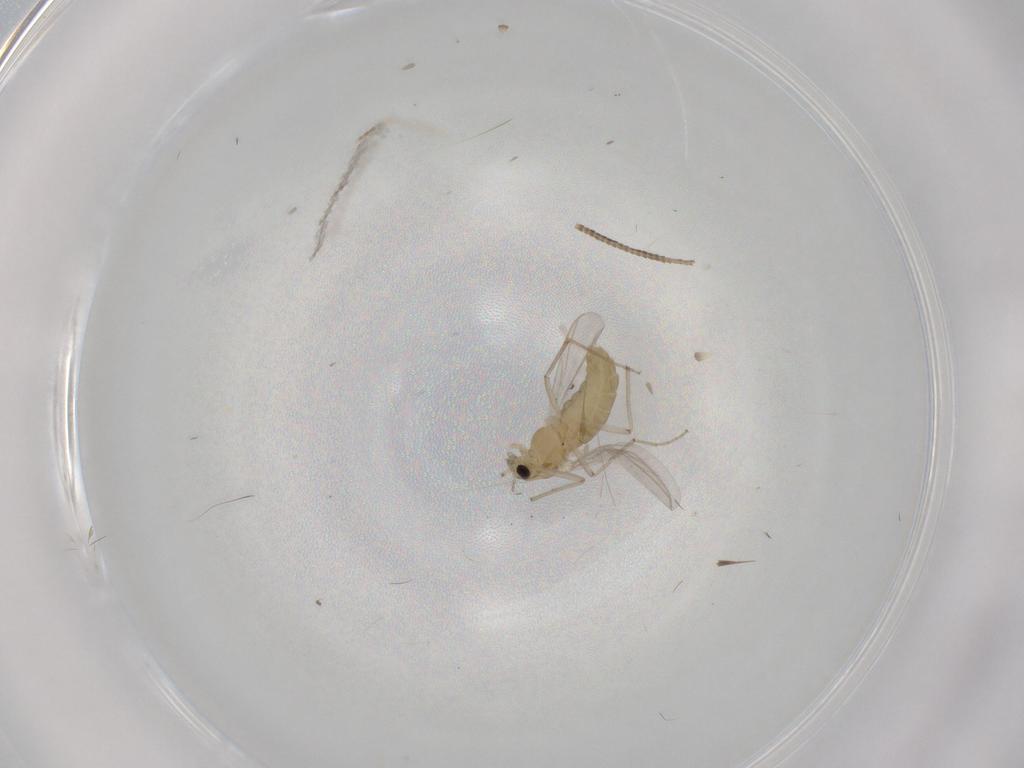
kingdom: Animalia
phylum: Arthropoda
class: Insecta
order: Diptera
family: Chironomidae
